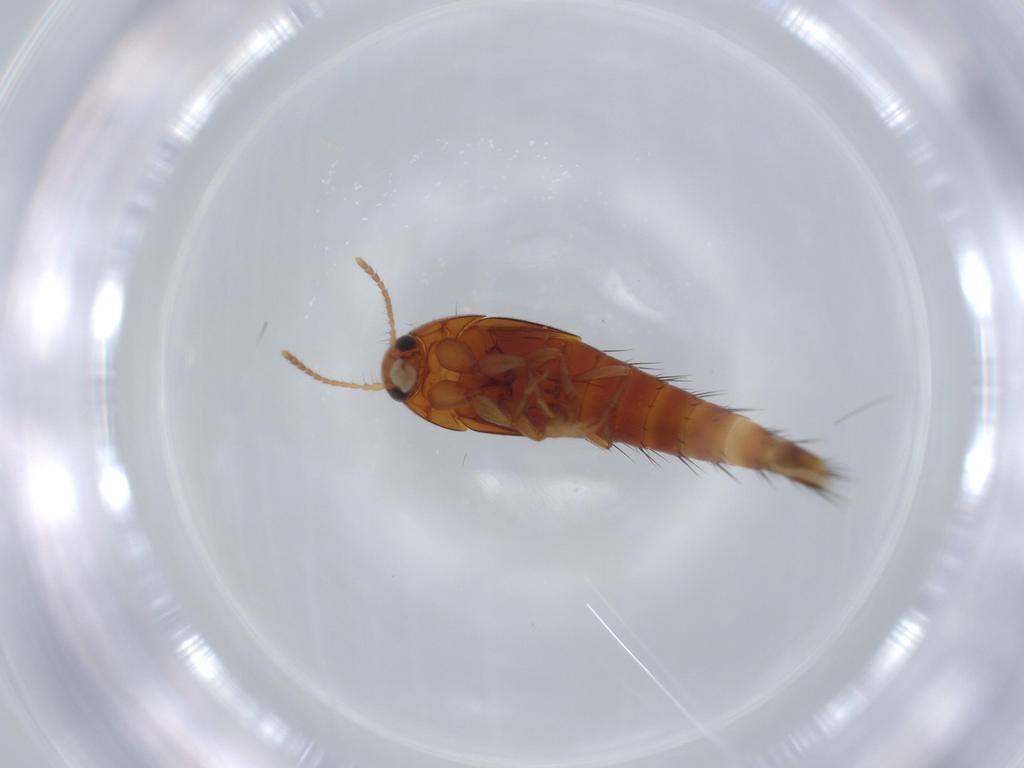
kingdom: Animalia
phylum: Arthropoda
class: Insecta
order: Coleoptera
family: Staphylinidae
